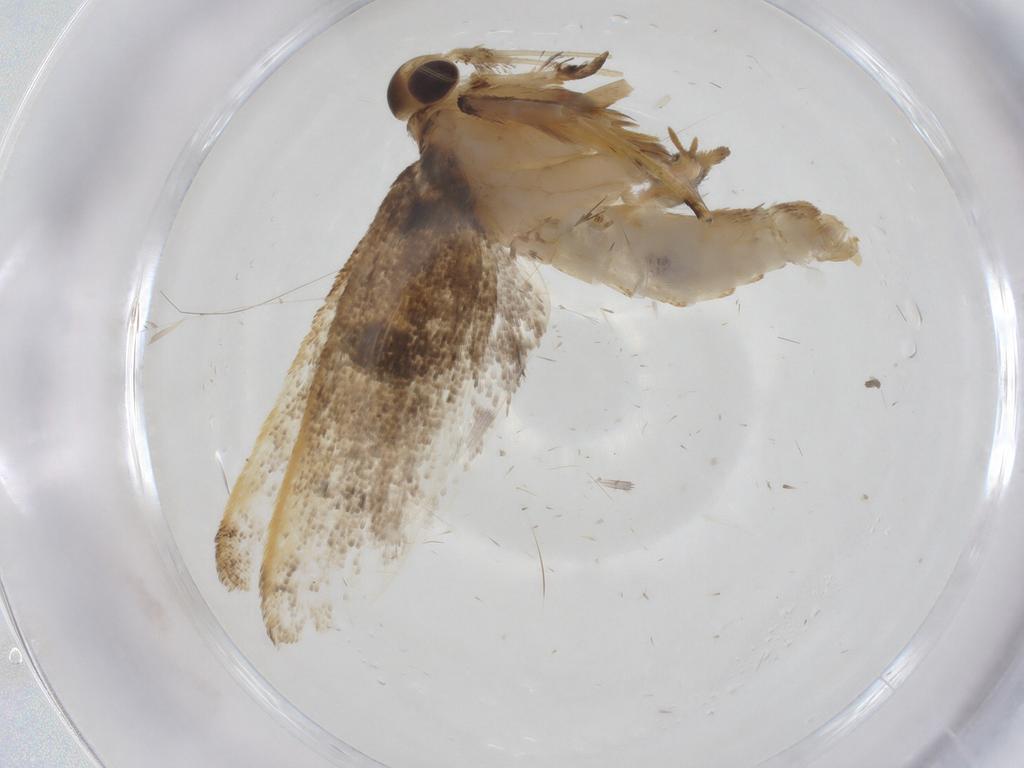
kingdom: Animalia
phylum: Arthropoda
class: Insecta
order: Lepidoptera
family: Lecithoceridae
